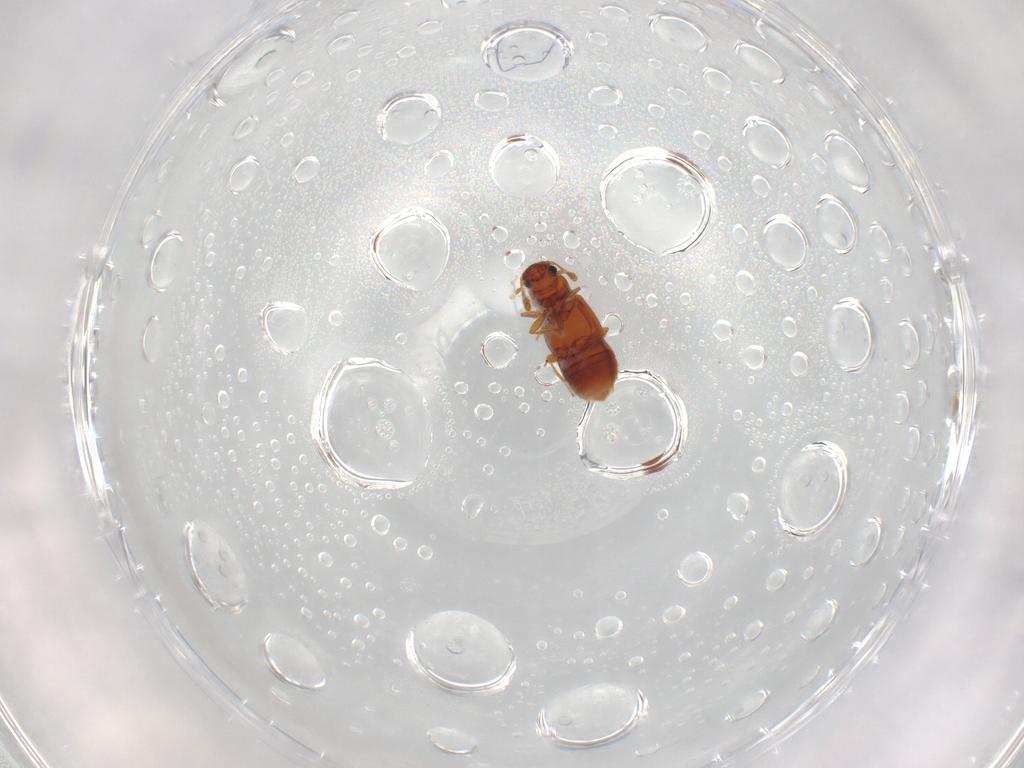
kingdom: Animalia
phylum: Arthropoda
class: Insecta
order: Coleoptera
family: Staphylinidae
